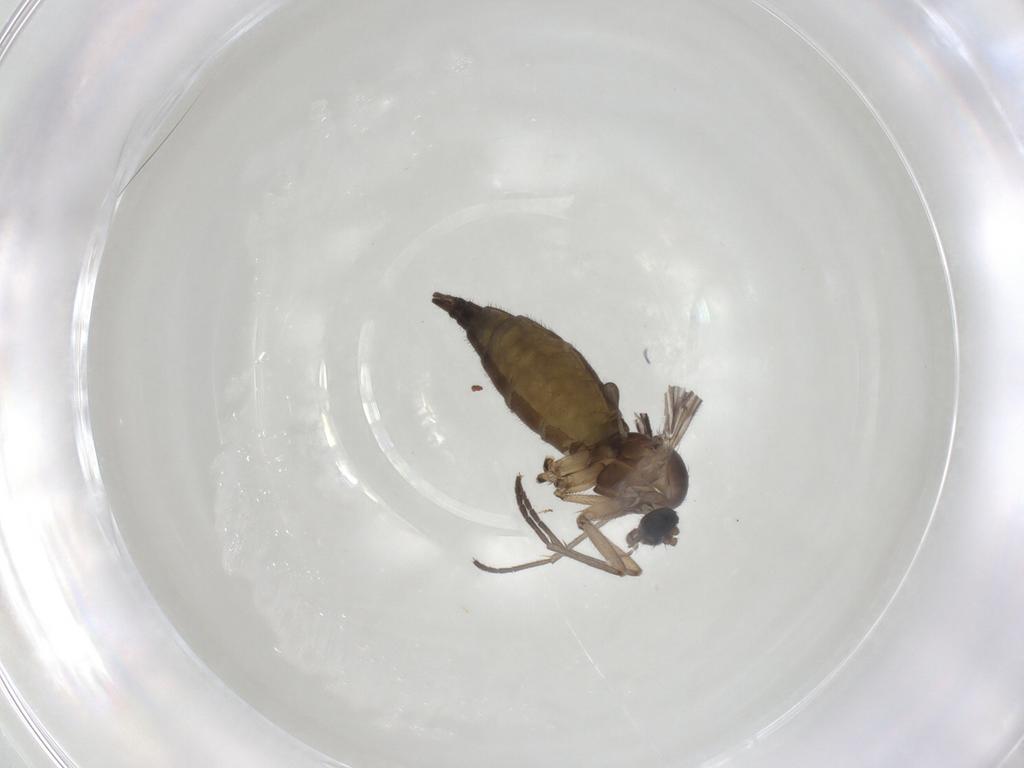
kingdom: Animalia
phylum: Arthropoda
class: Insecta
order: Diptera
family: Sciaridae
